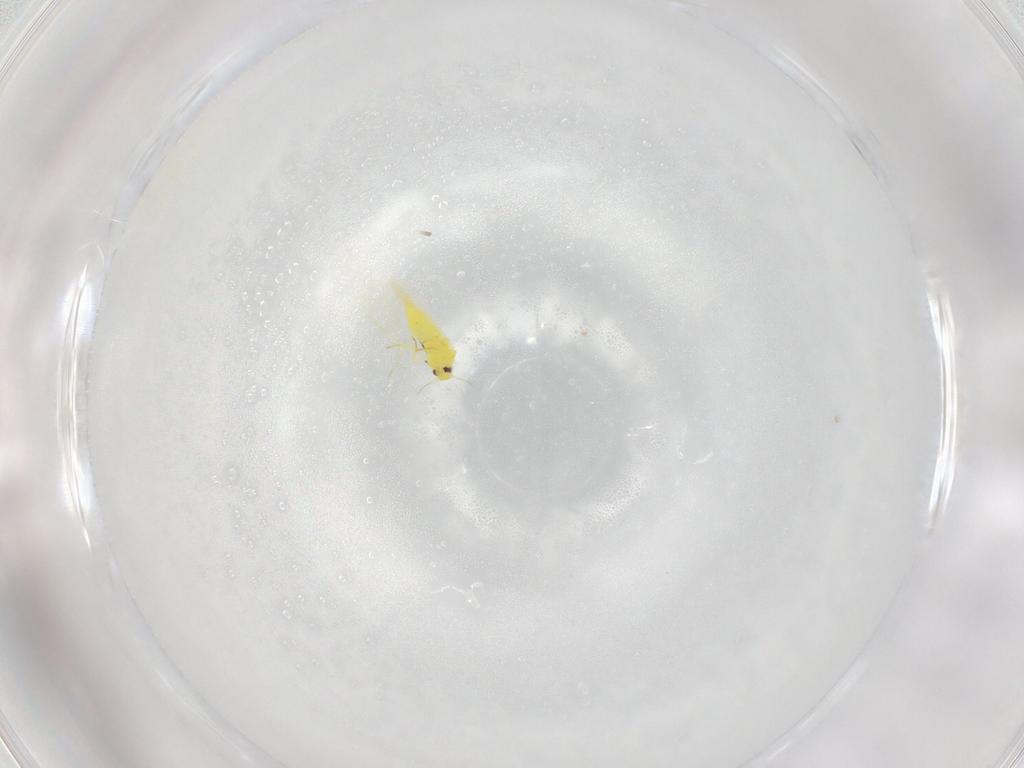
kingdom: Animalia
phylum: Arthropoda
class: Insecta
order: Hemiptera
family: Aleyrodidae
